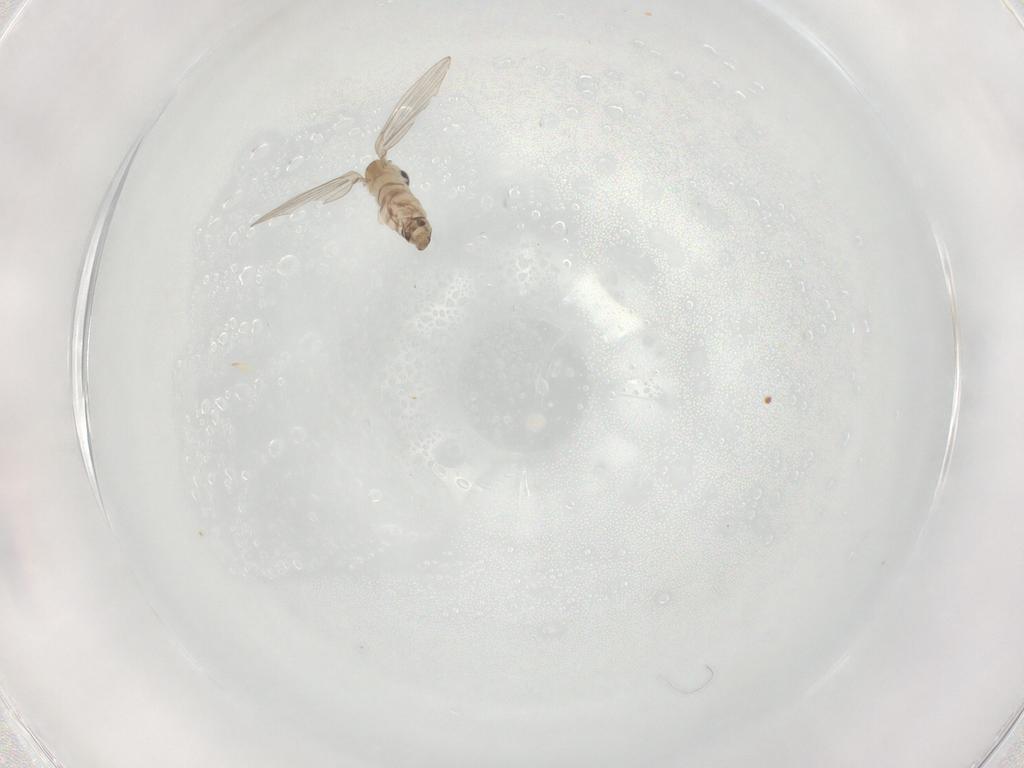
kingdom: Animalia
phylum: Arthropoda
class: Insecta
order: Diptera
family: Psychodidae
